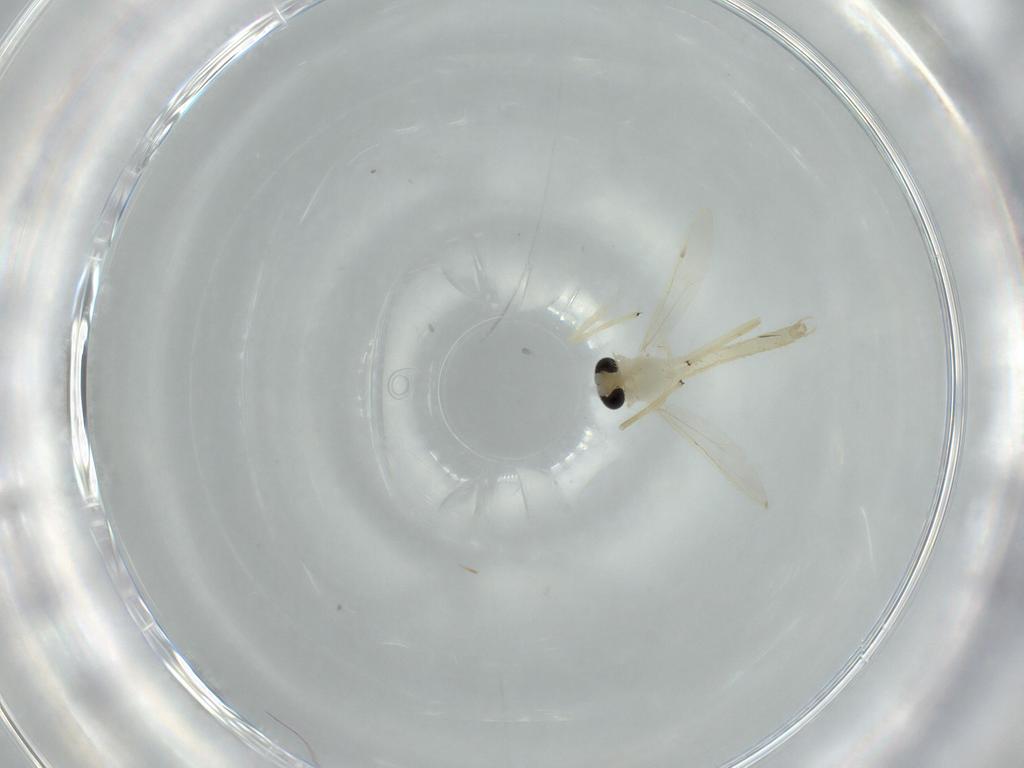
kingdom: Animalia
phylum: Arthropoda
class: Insecta
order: Diptera
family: Chironomidae
